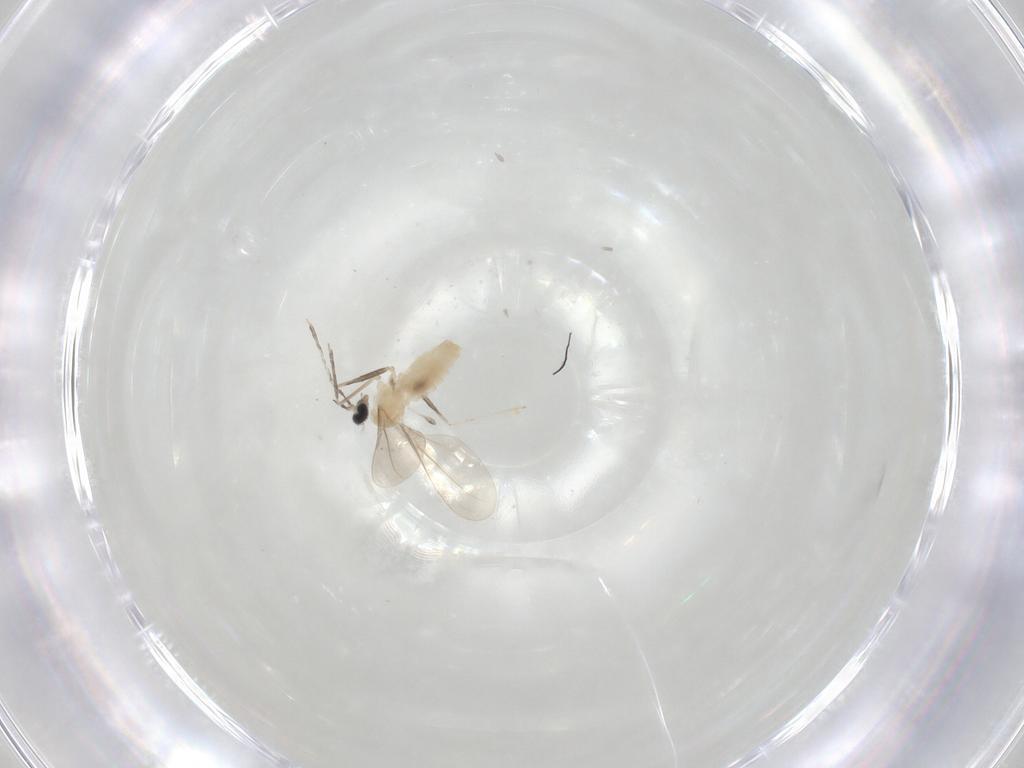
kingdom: Animalia
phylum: Arthropoda
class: Insecta
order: Diptera
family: Cecidomyiidae
